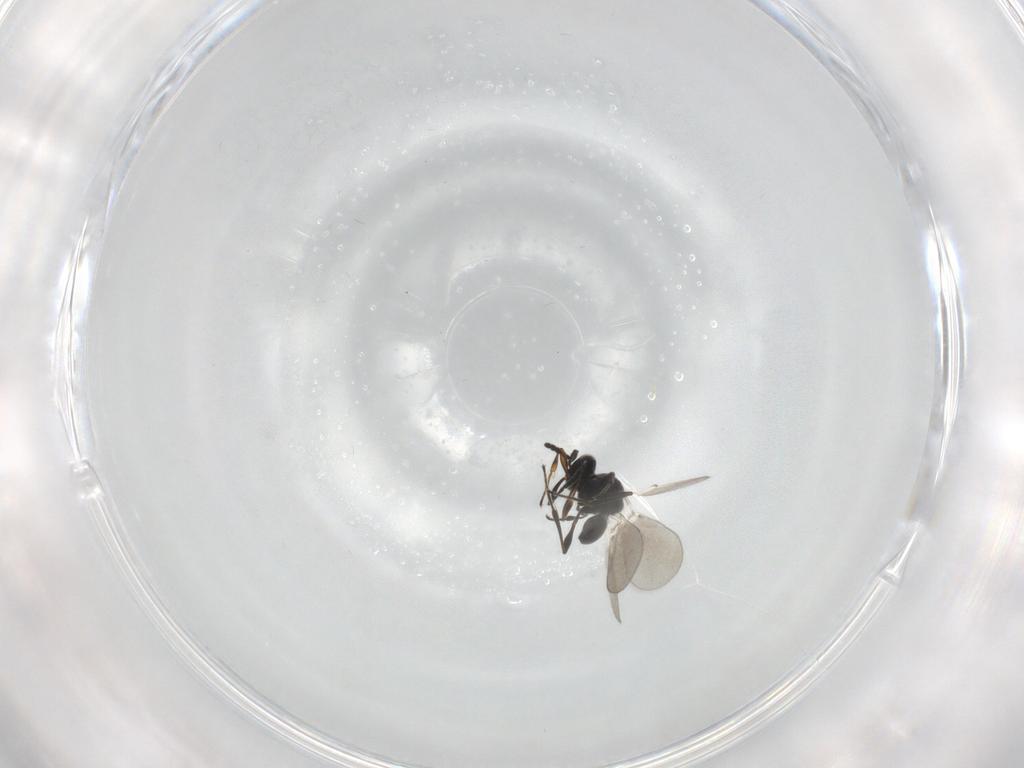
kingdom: Animalia
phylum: Arthropoda
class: Insecta
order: Hymenoptera
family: Platygastridae
